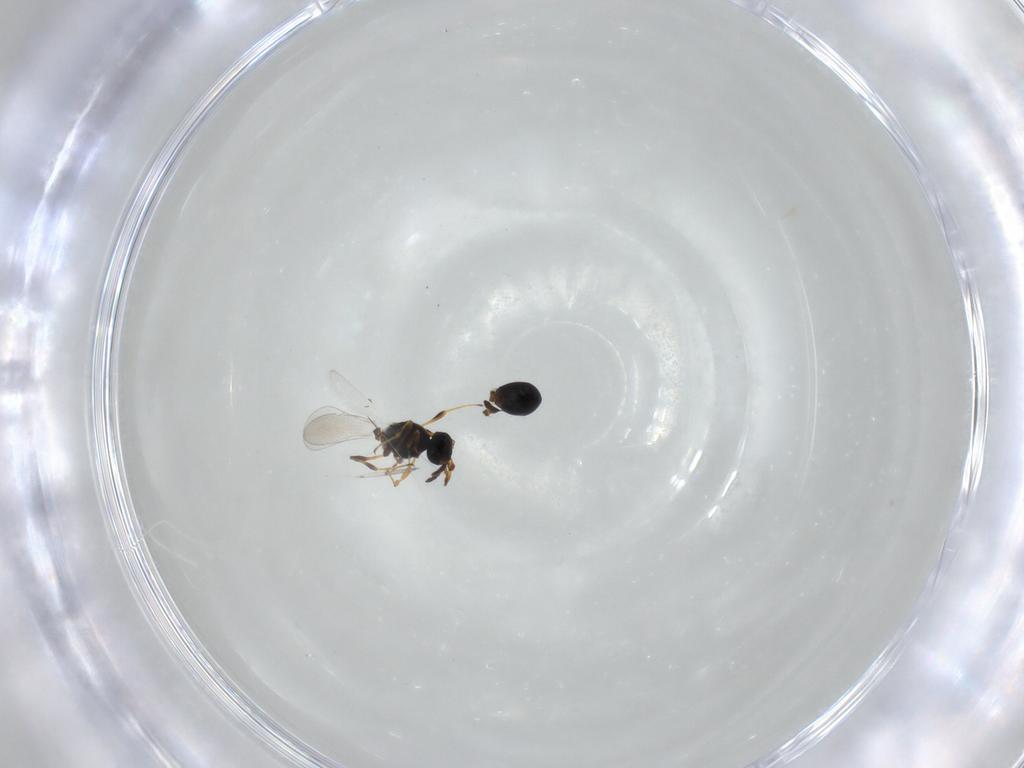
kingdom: Animalia
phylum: Arthropoda
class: Insecta
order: Hymenoptera
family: Platygastridae
